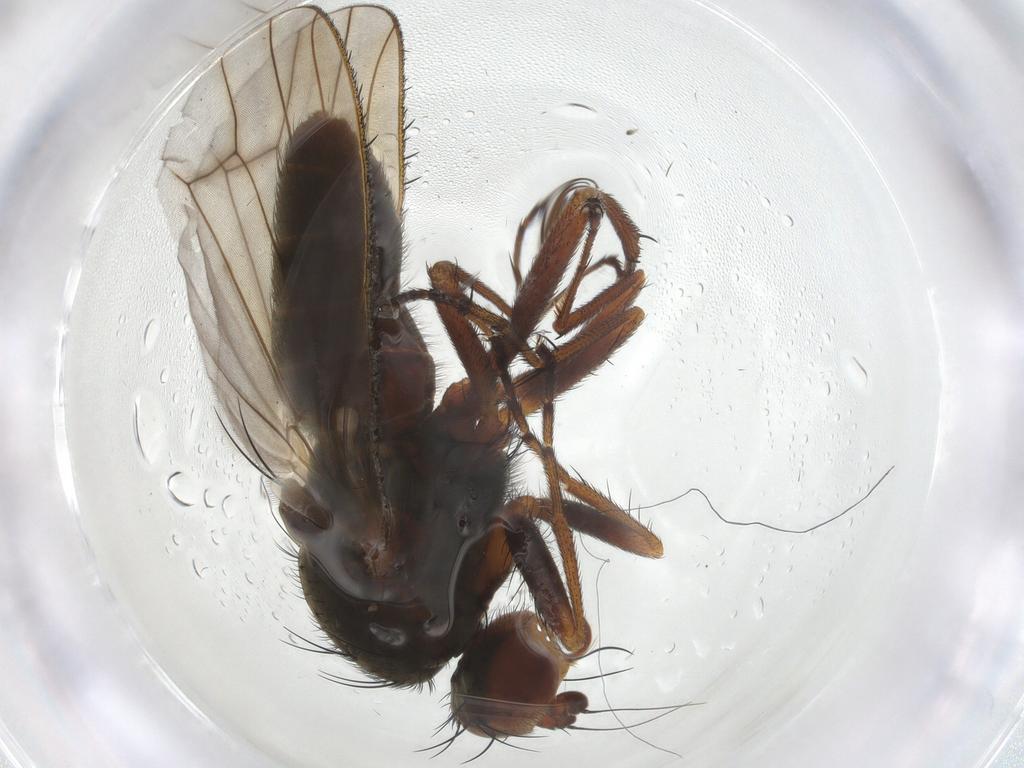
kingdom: Animalia
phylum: Arthropoda
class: Insecta
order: Diptera
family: Heleomyzidae
